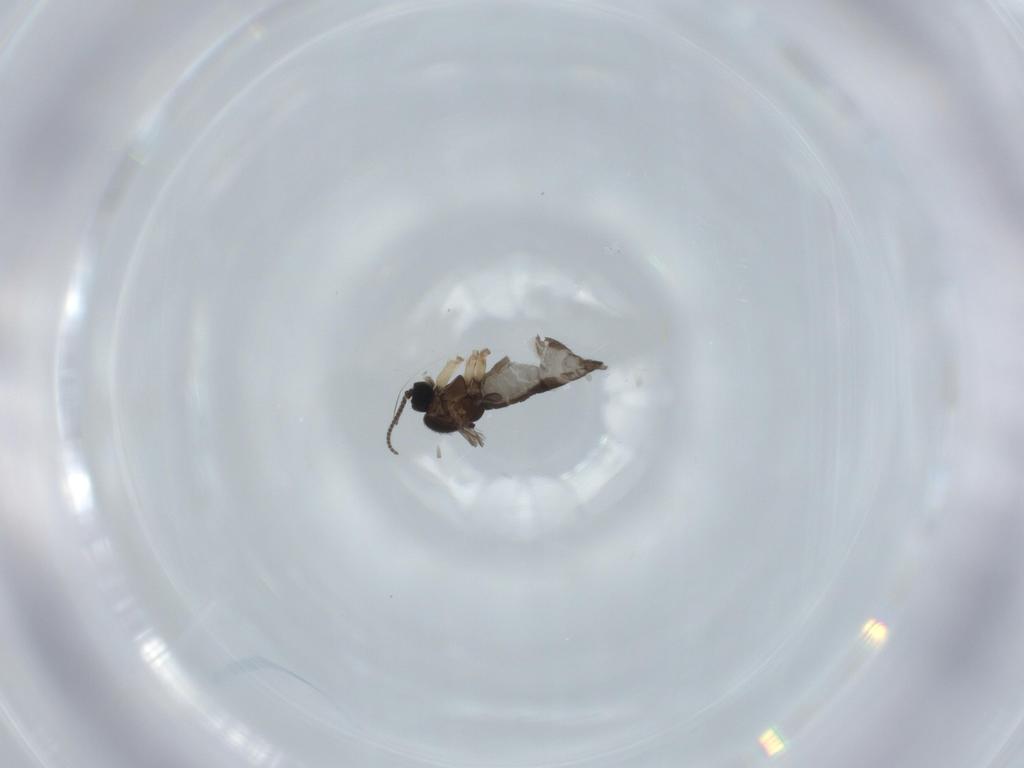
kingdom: Animalia
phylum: Arthropoda
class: Insecta
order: Diptera
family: Sciaridae
